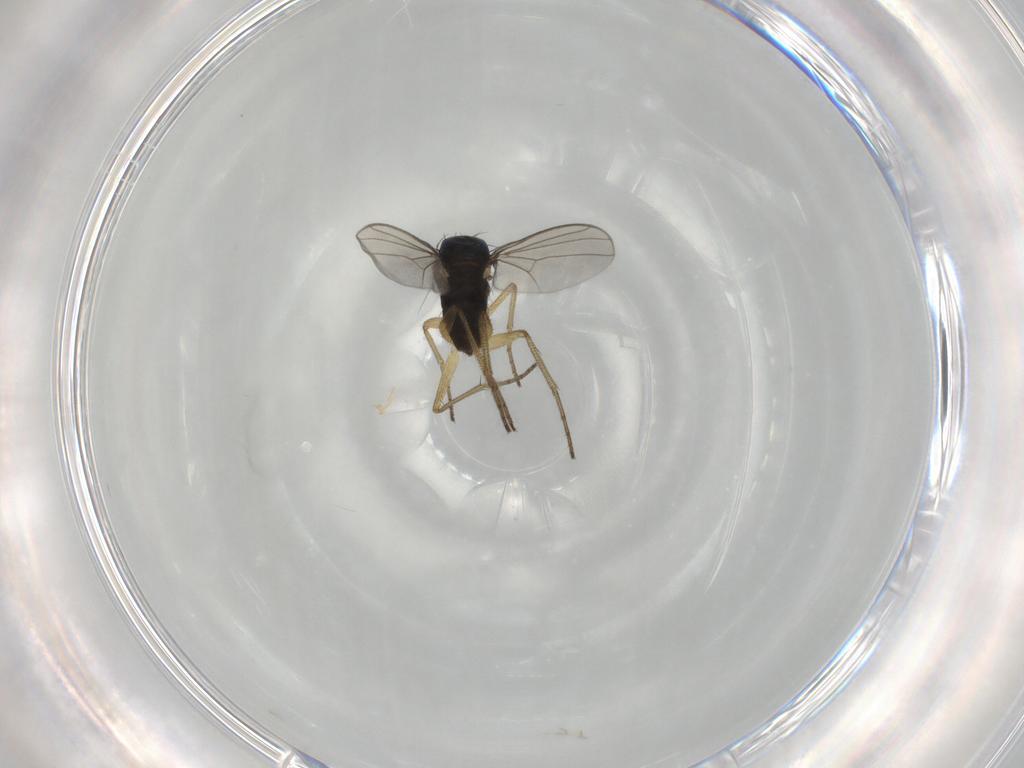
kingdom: Animalia
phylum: Arthropoda
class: Insecta
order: Diptera
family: Dolichopodidae
